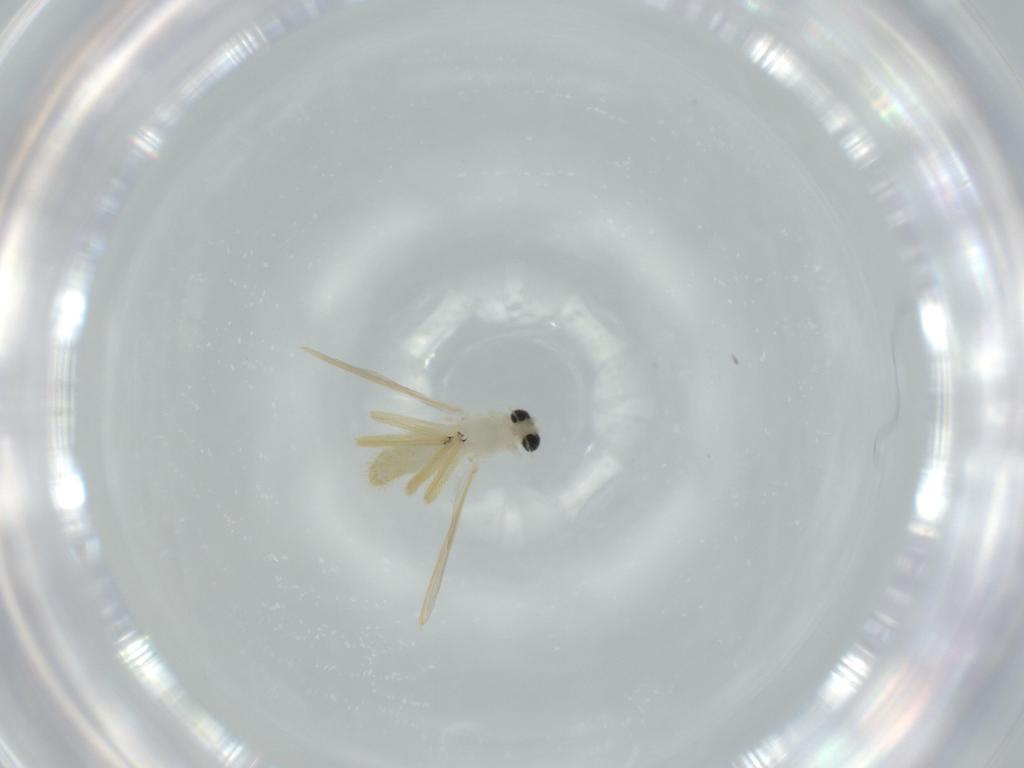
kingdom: Animalia
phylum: Arthropoda
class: Insecta
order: Diptera
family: Chironomidae
